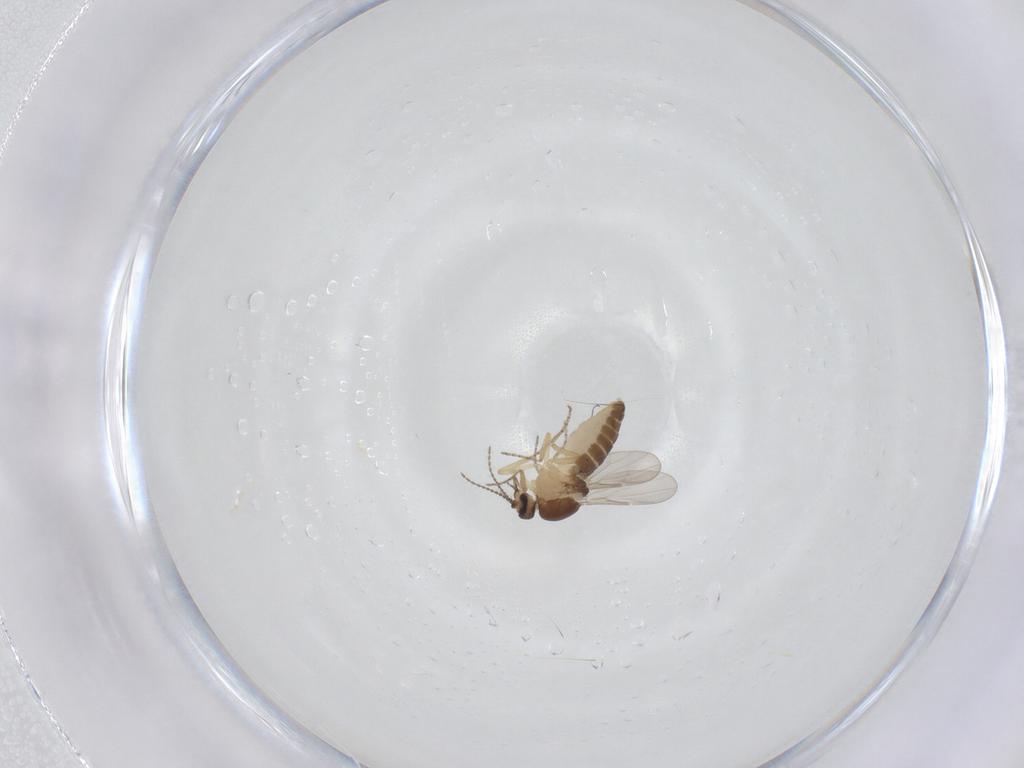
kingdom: Animalia
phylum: Arthropoda
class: Insecta
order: Diptera
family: Ceratopogonidae
